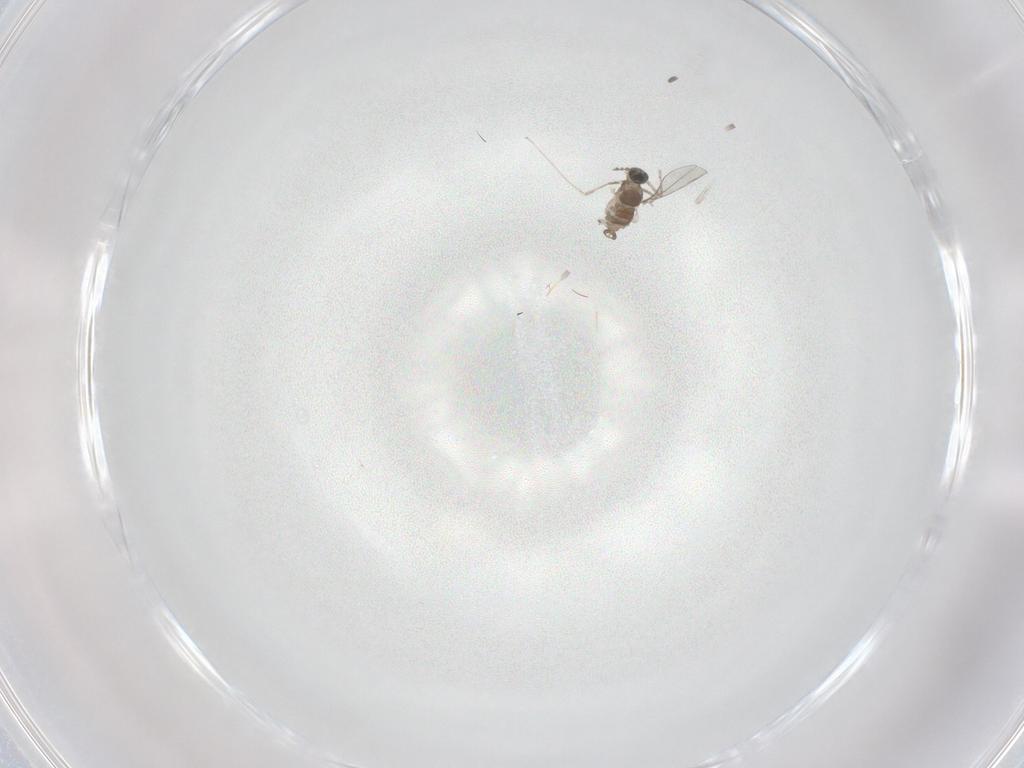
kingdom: Animalia
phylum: Arthropoda
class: Insecta
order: Diptera
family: Cecidomyiidae
